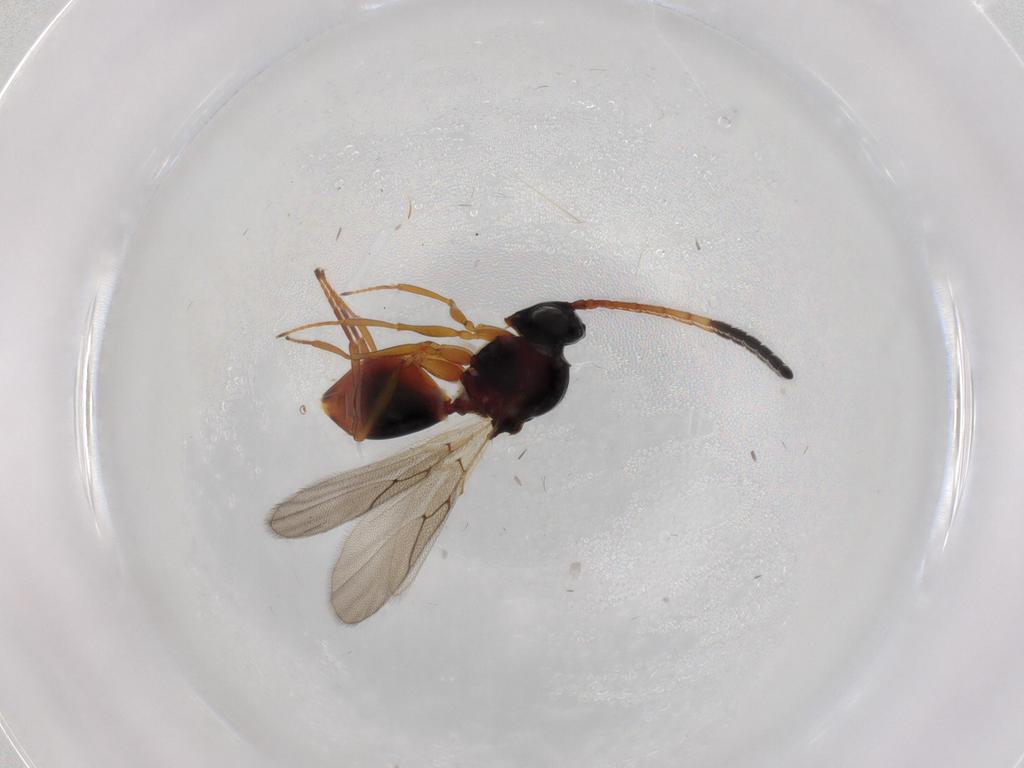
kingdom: Animalia
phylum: Arthropoda
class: Insecta
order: Hymenoptera
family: Figitidae
